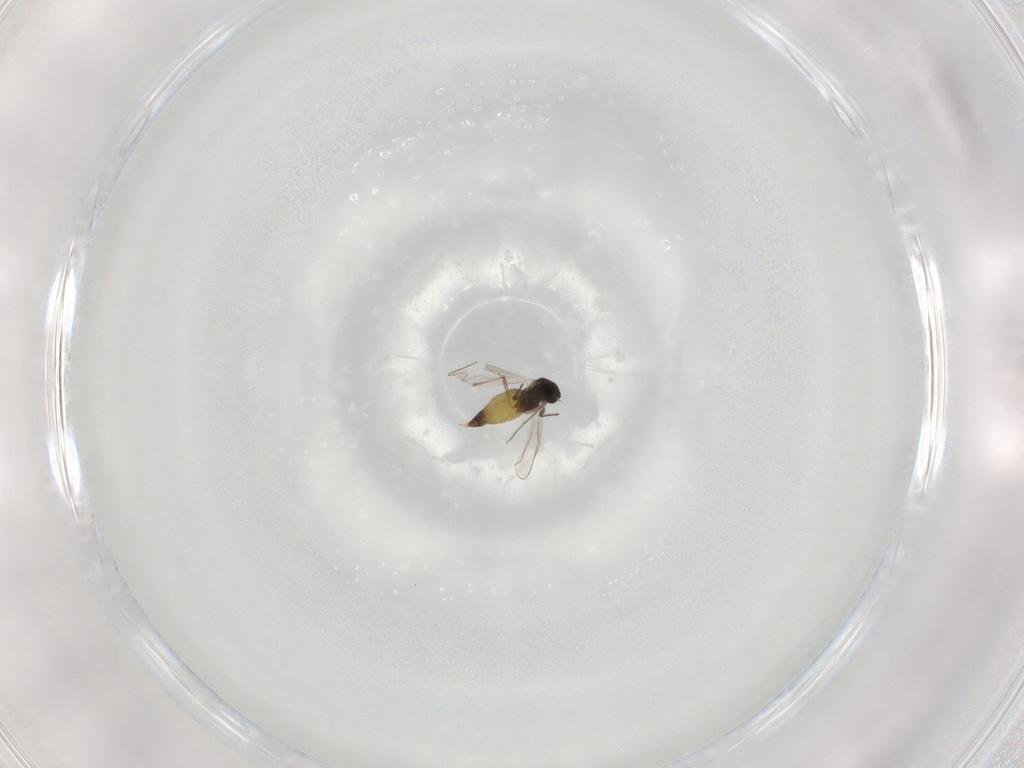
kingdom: Animalia
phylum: Arthropoda
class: Insecta
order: Diptera
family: Chironomidae
